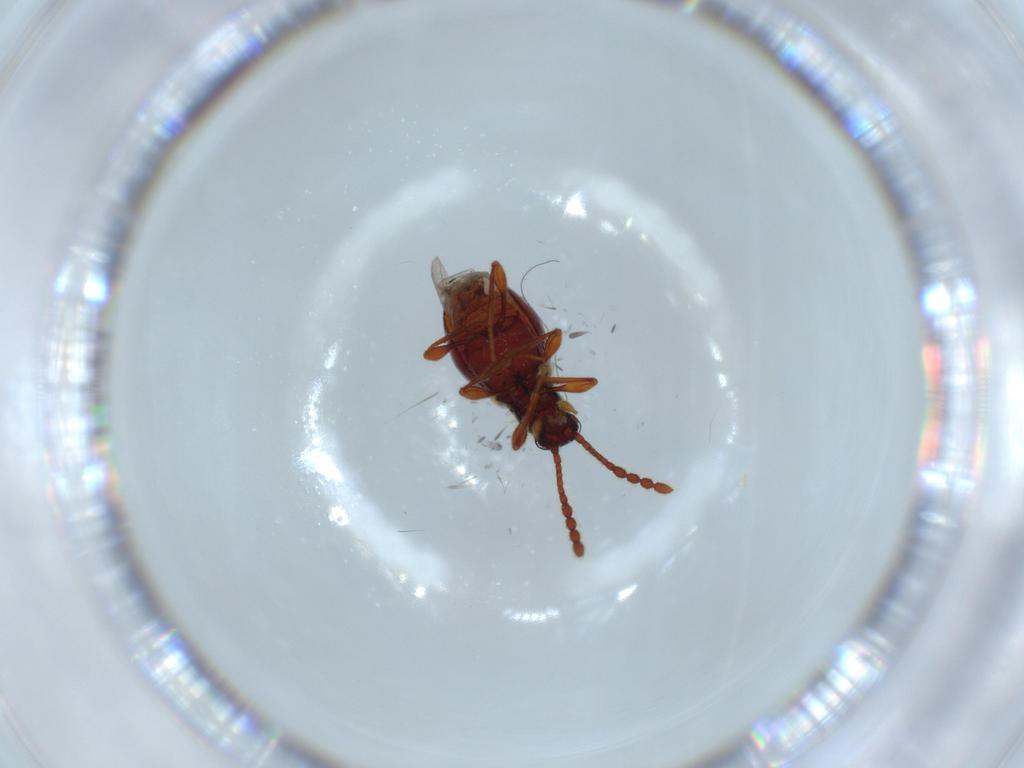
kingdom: Animalia
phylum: Arthropoda
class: Insecta
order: Coleoptera
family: Staphylinidae
